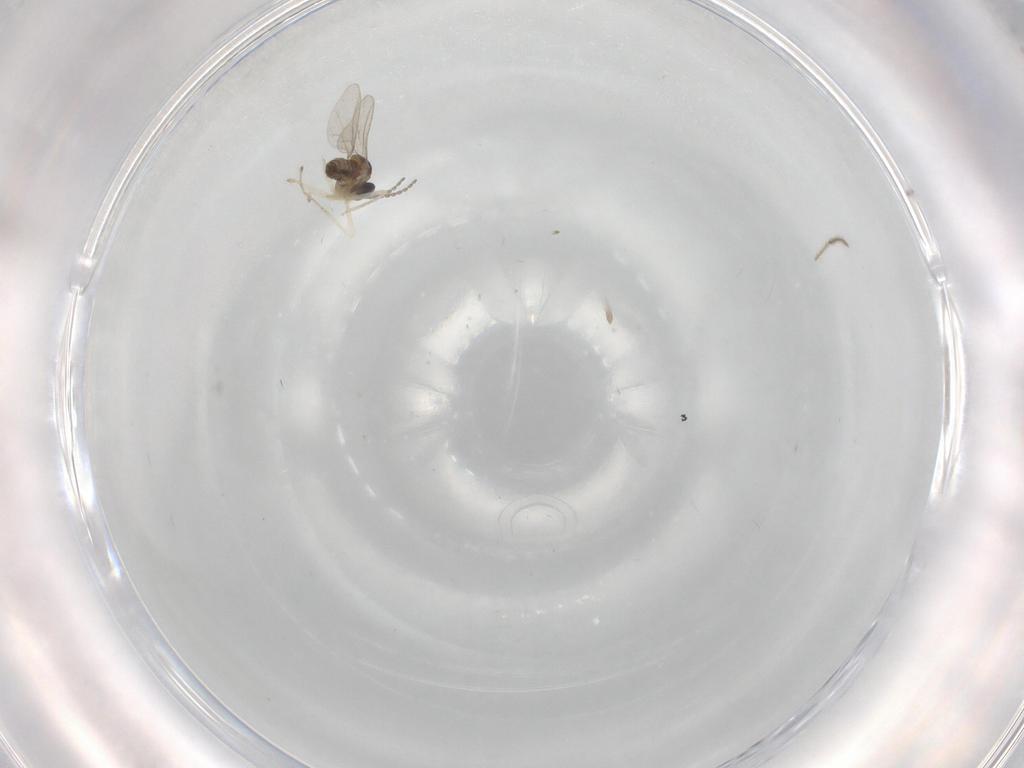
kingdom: Animalia
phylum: Arthropoda
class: Insecta
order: Diptera
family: Cecidomyiidae
